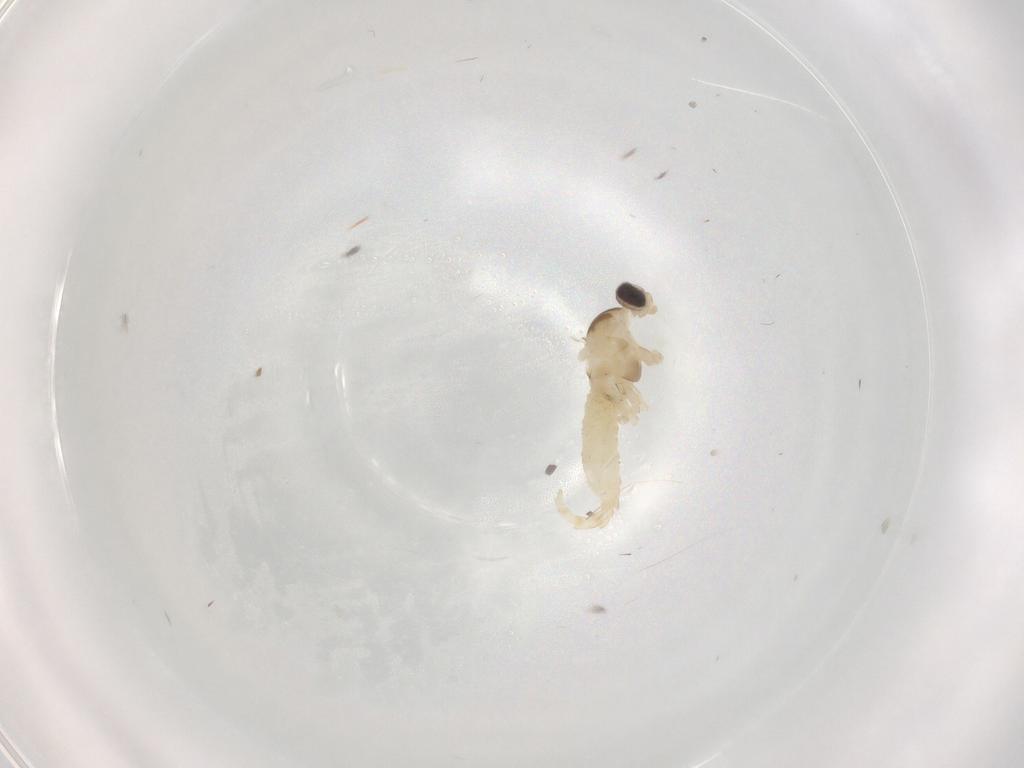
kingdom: Animalia
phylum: Arthropoda
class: Insecta
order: Diptera
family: Cecidomyiidae
